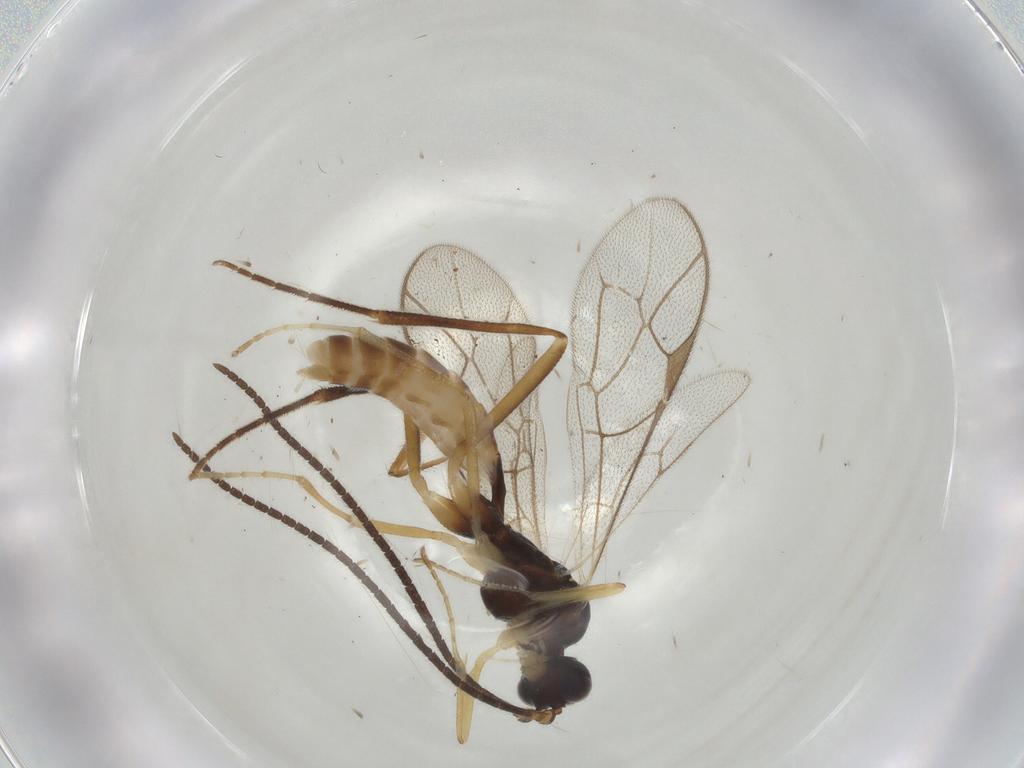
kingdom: Animalia
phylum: Arthropoda
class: Insecta
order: Hymenoptera
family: Ichneumonidae
